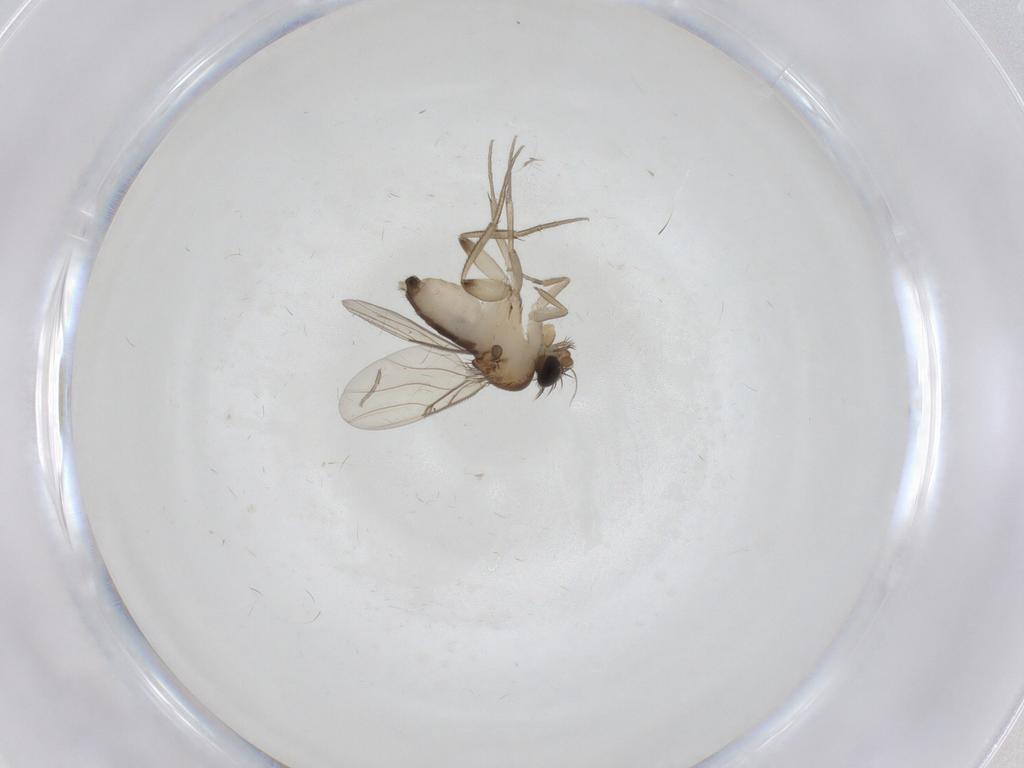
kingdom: Animalia
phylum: Arthropoda
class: Insecta
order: Diptera
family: Phoridae
